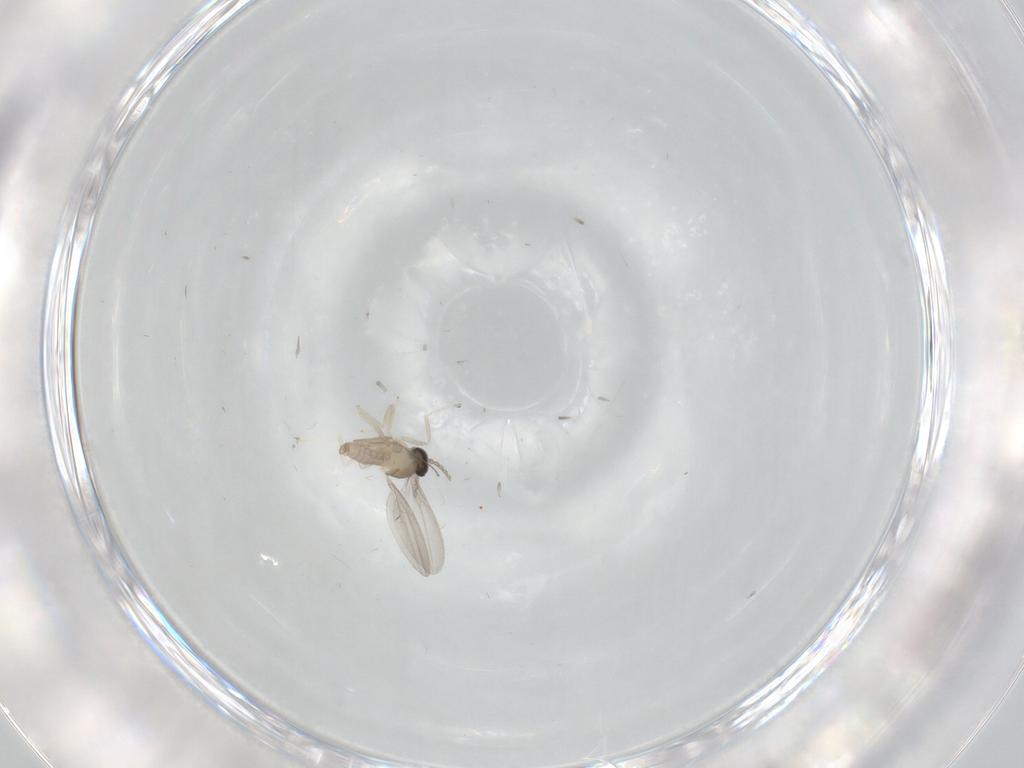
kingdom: Animalia
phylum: Arthropoda
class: Insecta
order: Diptera
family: Cecidomyiidae
